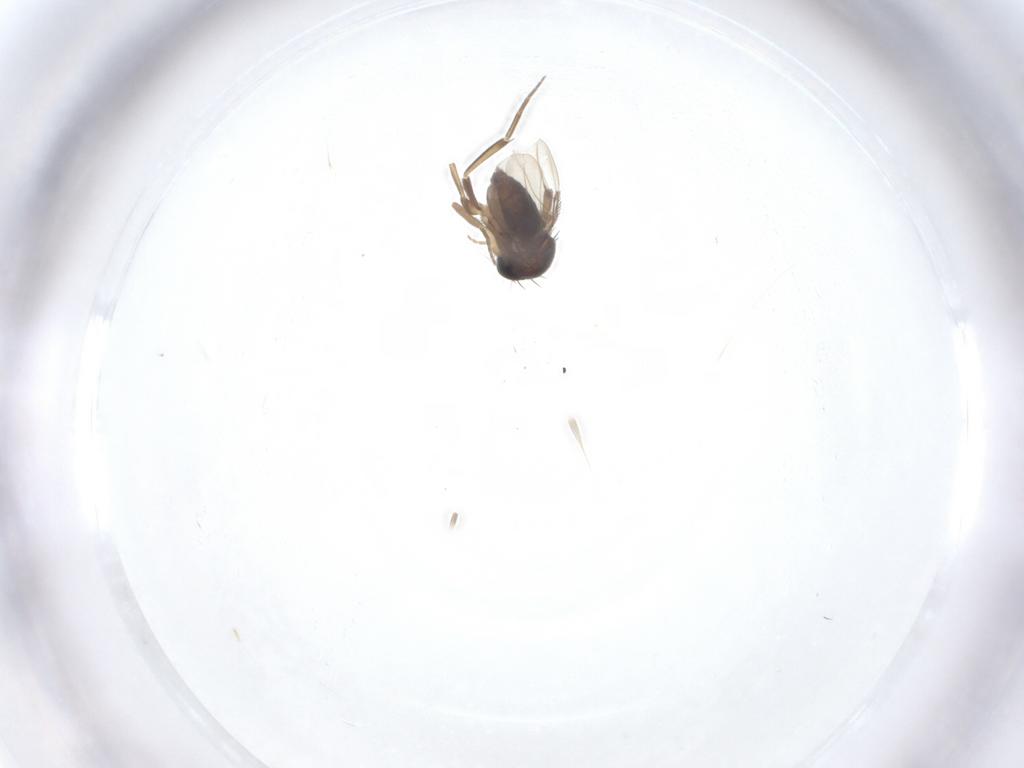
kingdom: Animalia
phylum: Arthropoda
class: Insecta
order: Diptera
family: Phoridae
